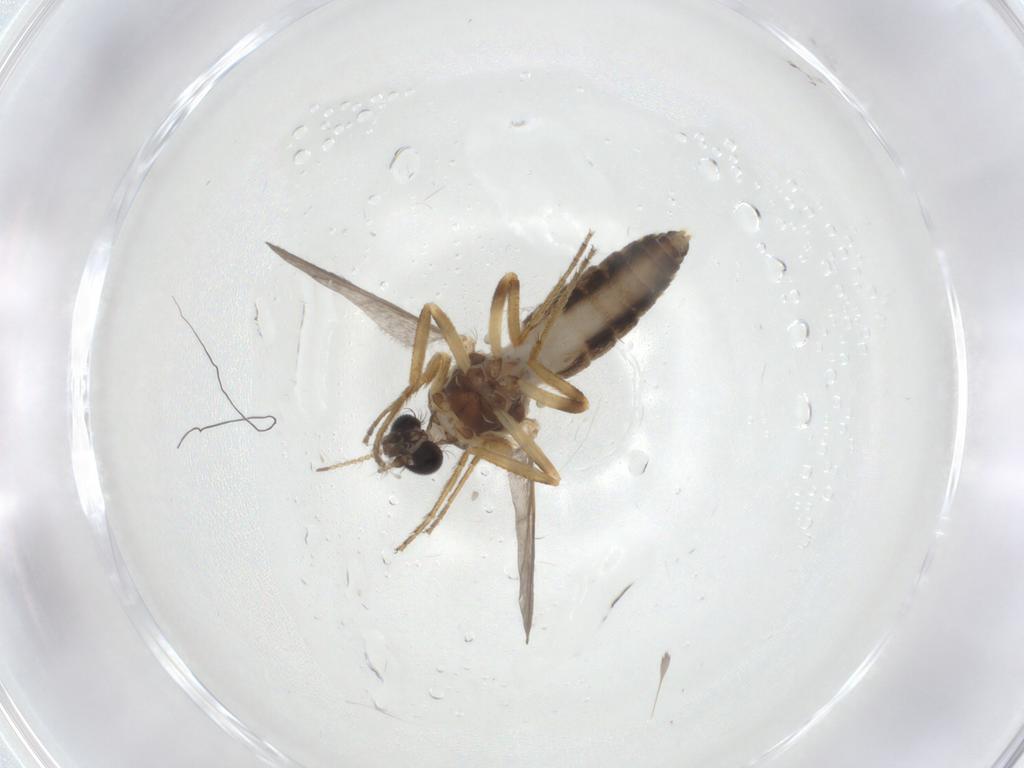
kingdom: Animalia
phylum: Arthropoda
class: Insecta
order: Diptera
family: Ceratopogonidae
